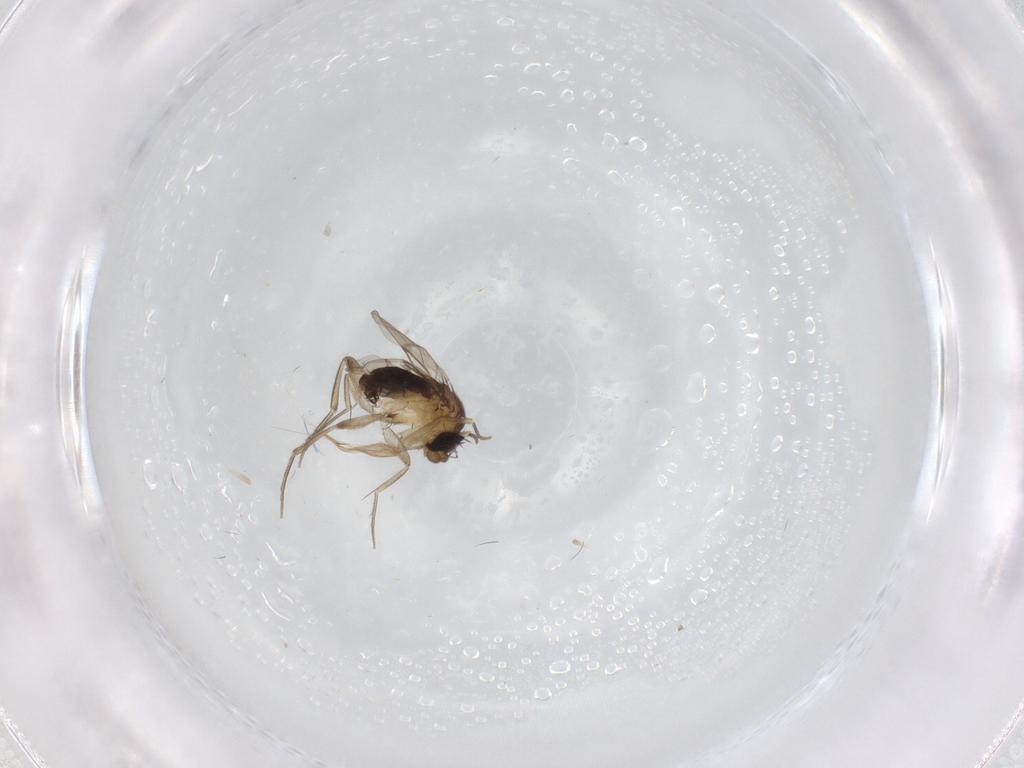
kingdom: Animalia
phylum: Arthropoda
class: Insecta
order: Diptera
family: Phoridae
